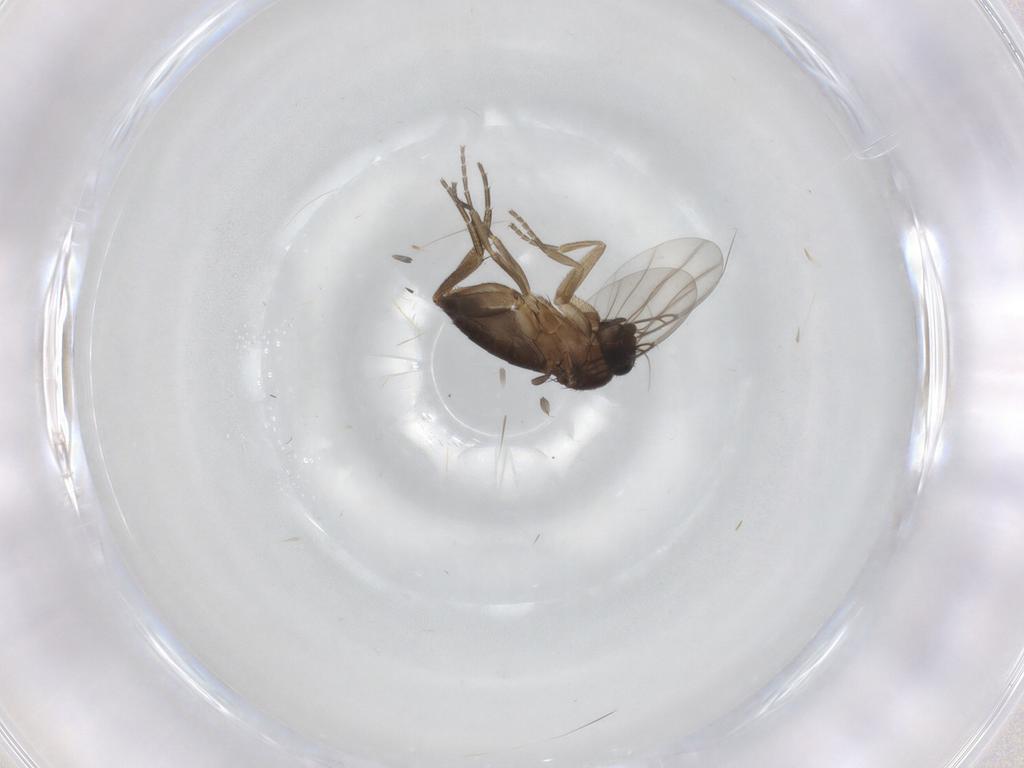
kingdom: Animalia
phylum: Arthropoda
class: Insecta
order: Diptera
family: Phoridae
